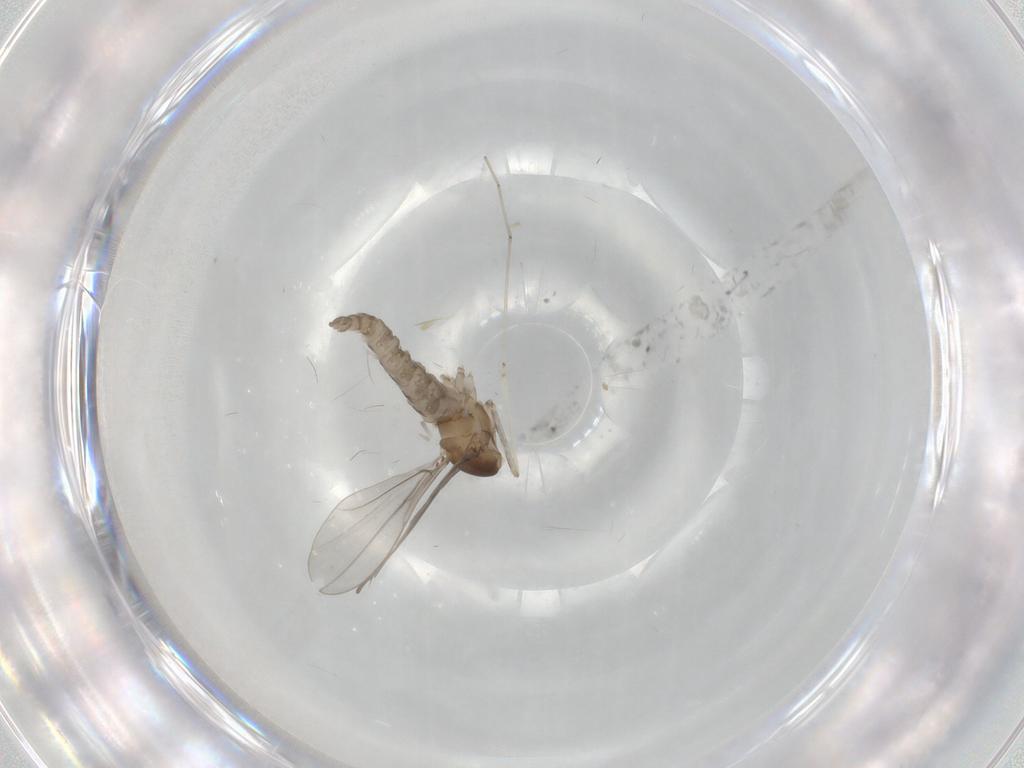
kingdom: Animalia
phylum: Arthropoda
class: Insecta
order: Diptera
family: Cecidomyiidae
